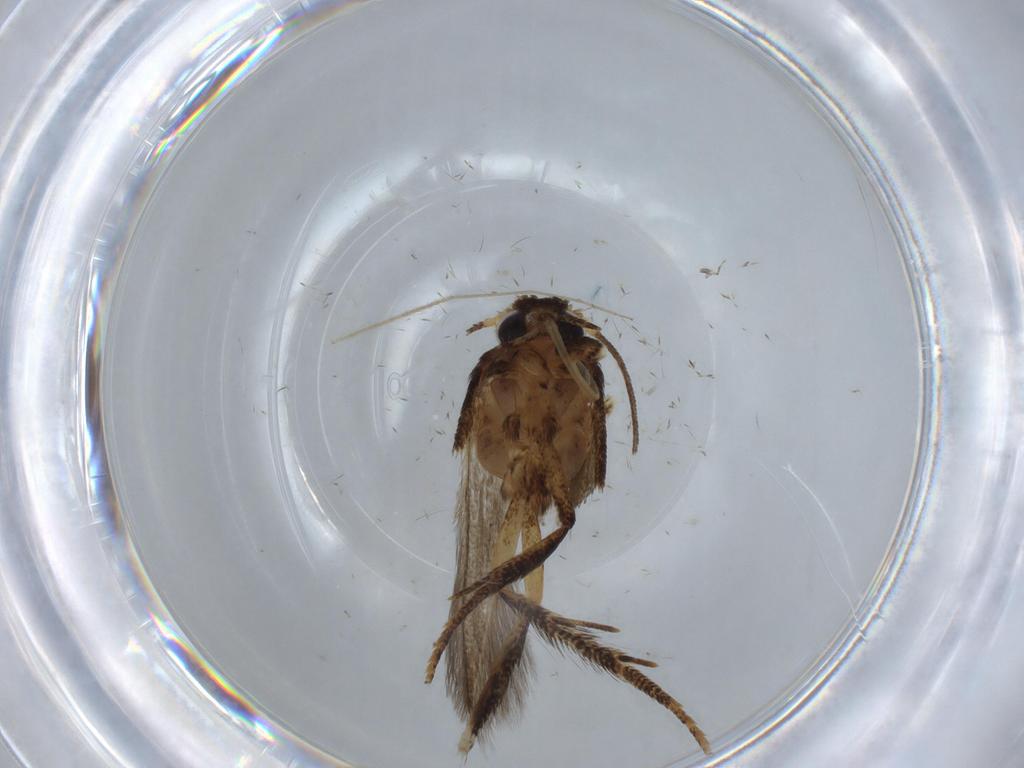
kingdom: Animalia
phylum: Arthropoda
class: Insecta
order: Lepidoptera
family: Blastobasidae
